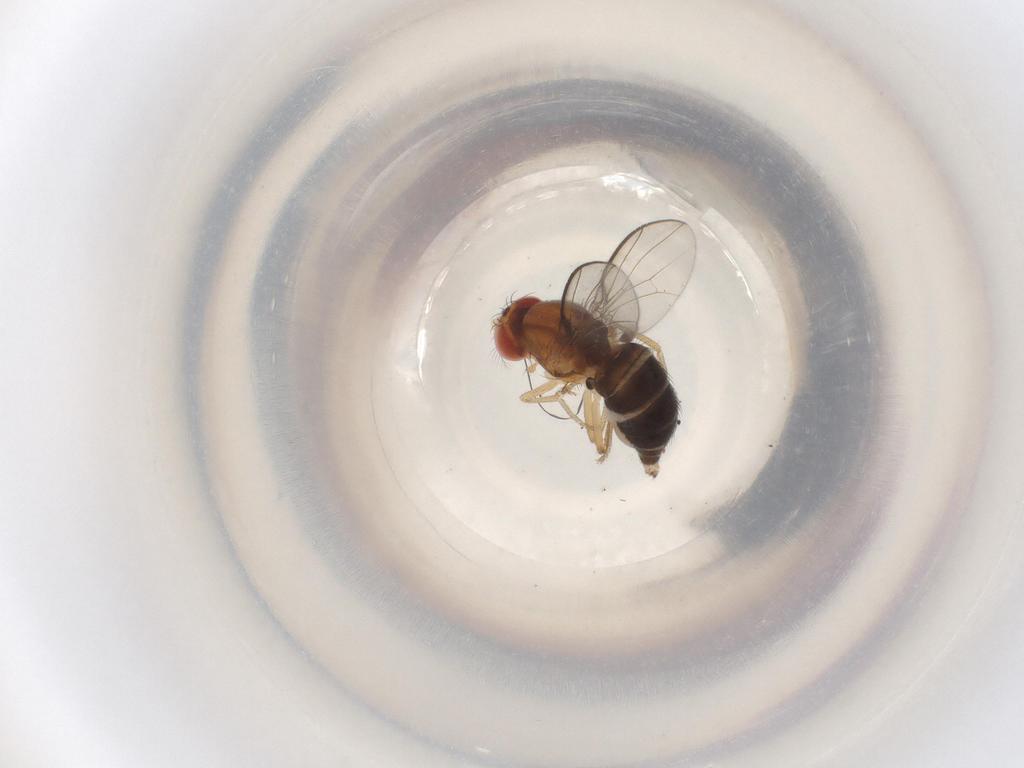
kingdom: Animalia
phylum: Arthropoda
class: Insecta
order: Diptera
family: Drosophilidae
